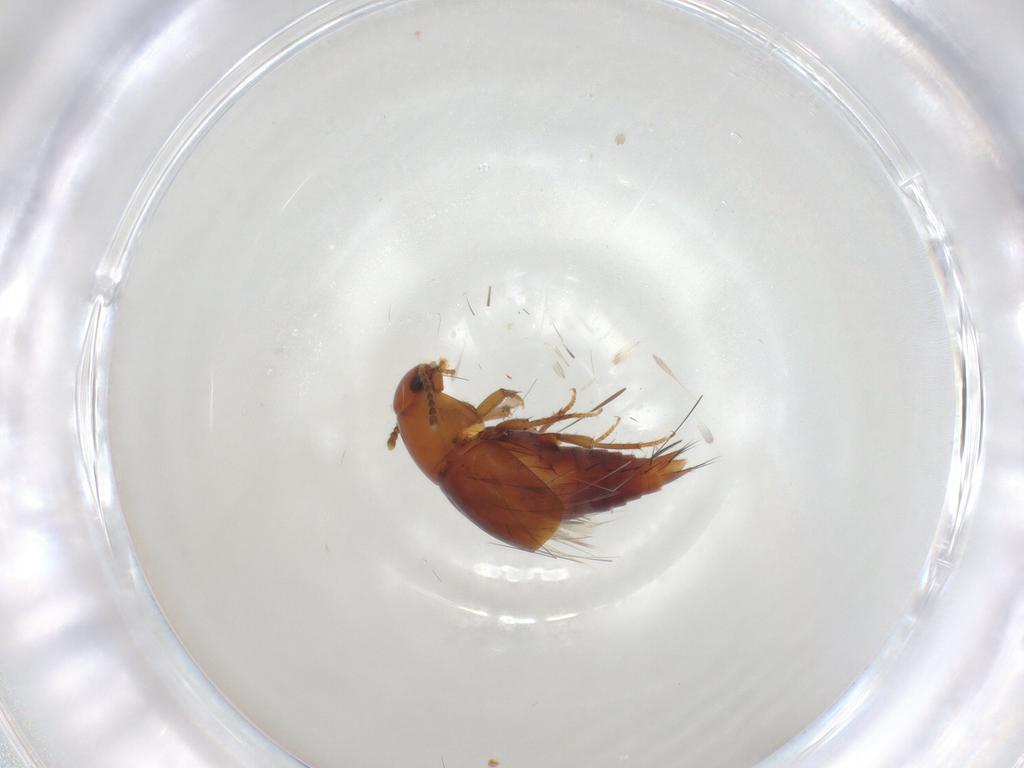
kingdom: Animalia
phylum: Arthropoda
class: Insecta
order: Coleoptera
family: Staphylinidae
